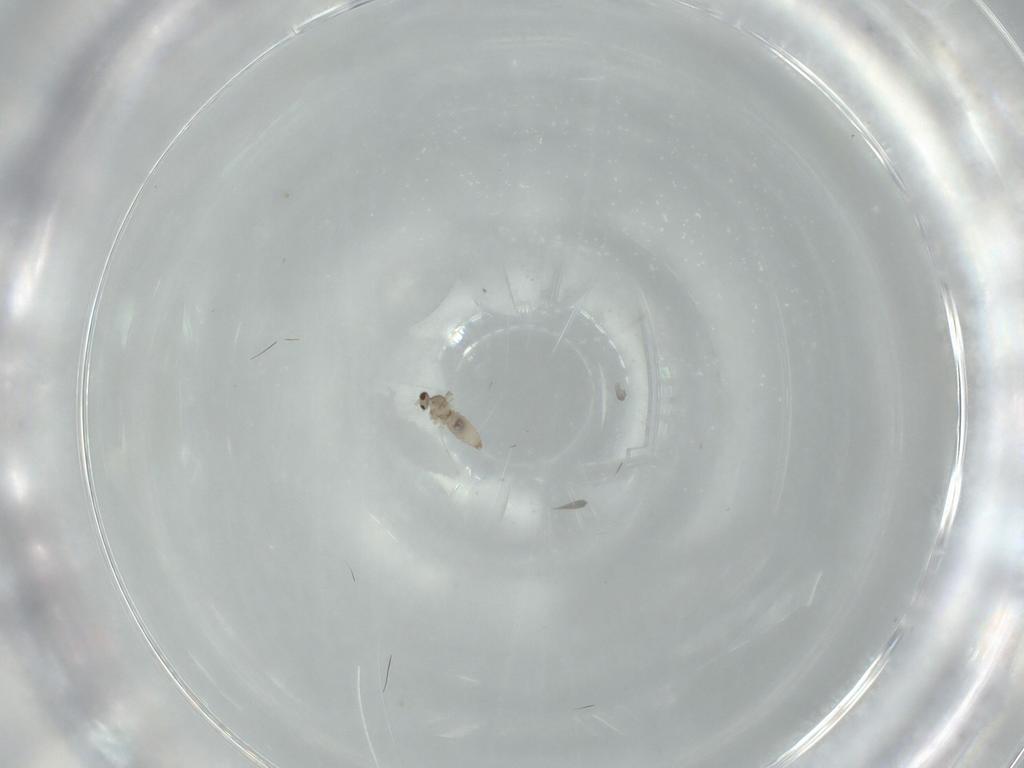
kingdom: Animalia
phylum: Arthropoda
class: Insecta
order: Diptera
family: Cecidomyiidae
